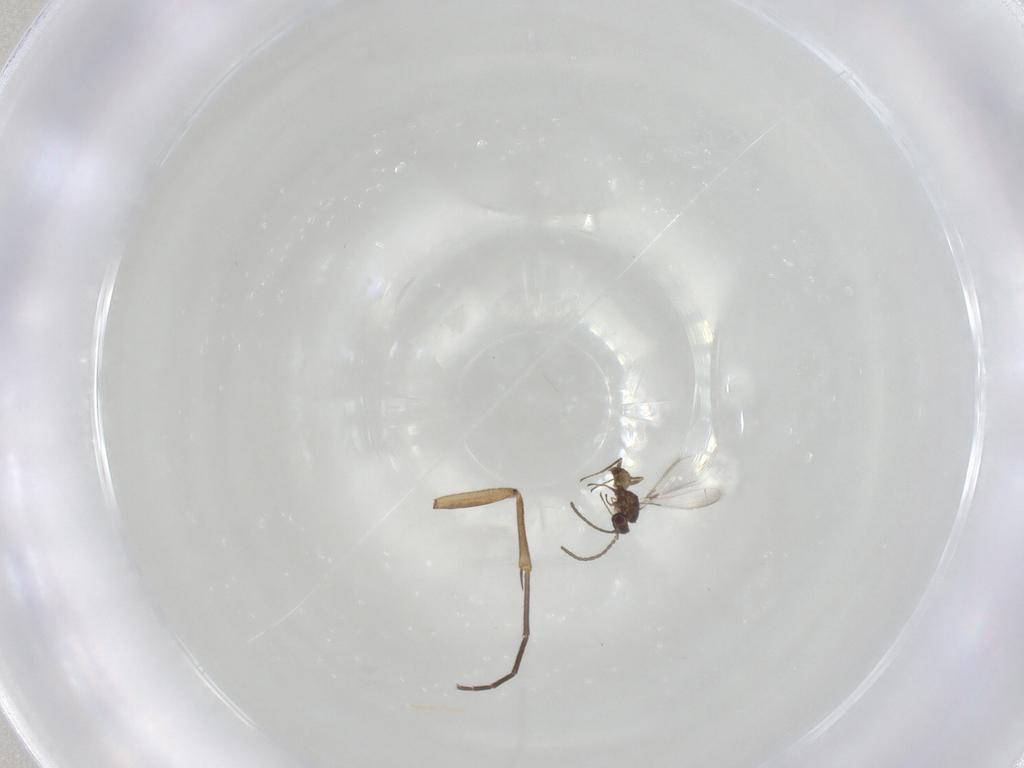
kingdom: Animalia
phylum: Arthropoda
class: Insecta
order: Hymenoptera
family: Mymaridae
